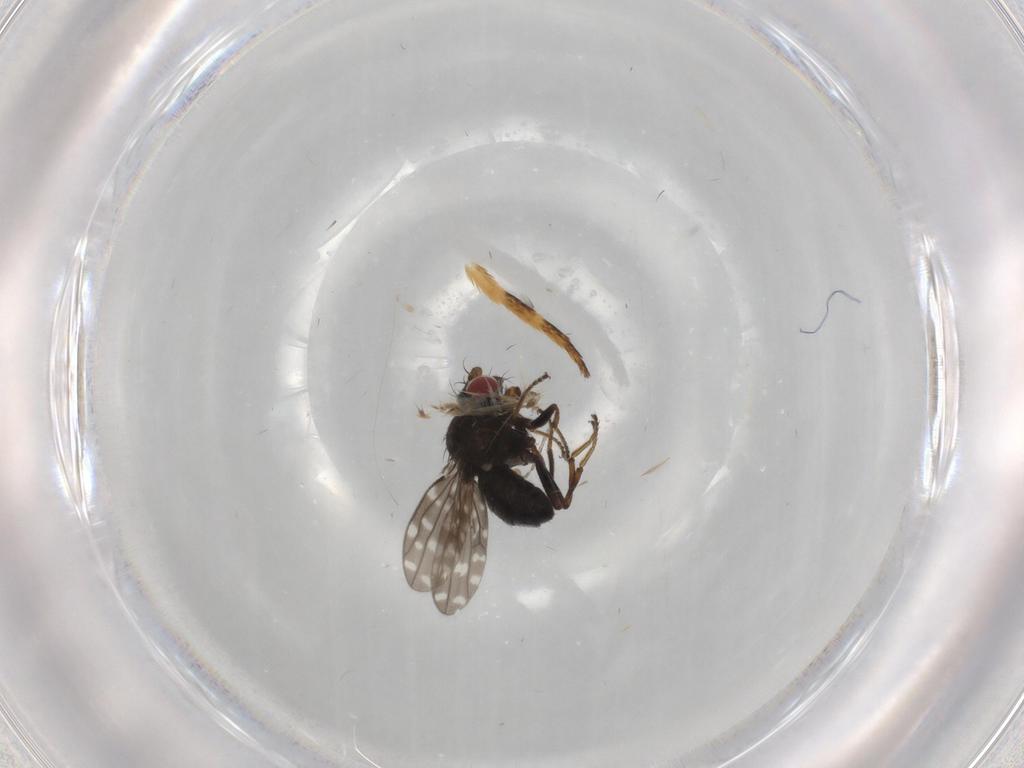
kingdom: Animalia
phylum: Arthropoda
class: Insecta
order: Diptera
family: Ephydridae
